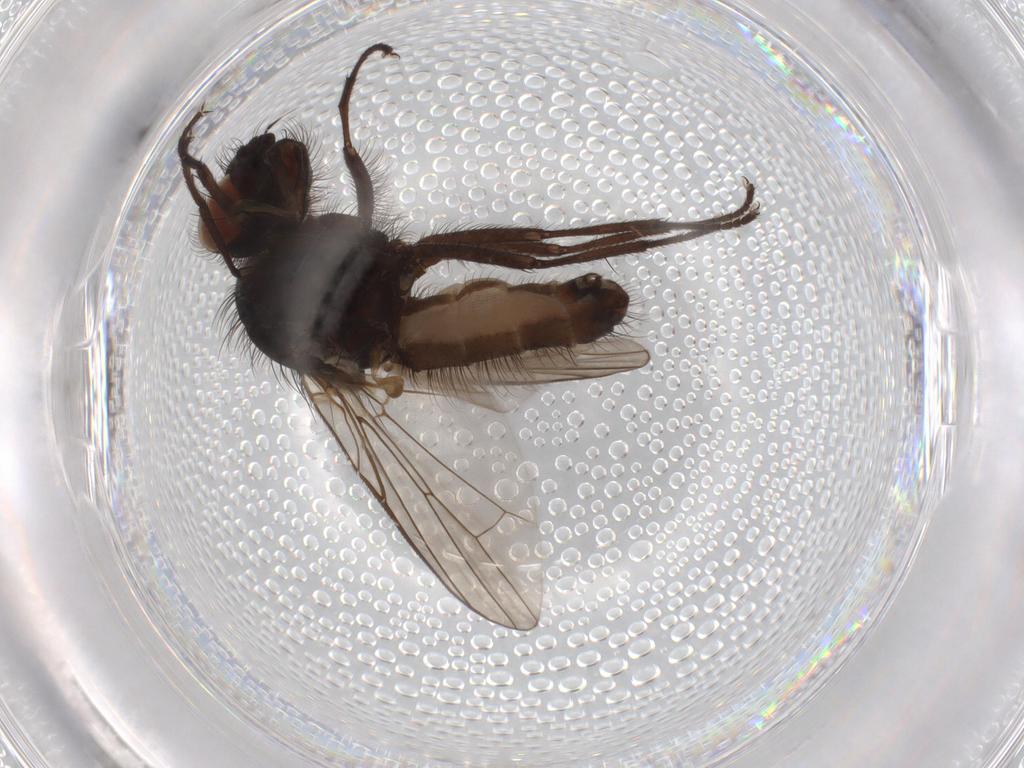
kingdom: Animalia
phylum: Arthropoda
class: Insecta
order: Diptera
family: Anthomyiidae
